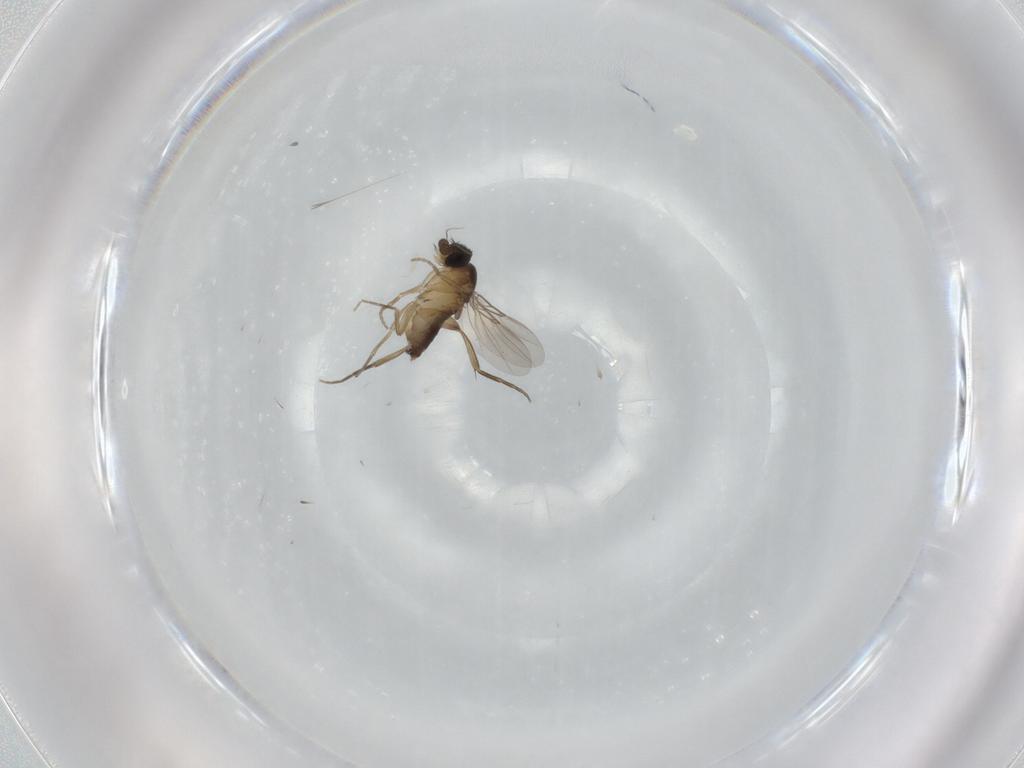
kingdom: Animalia
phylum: Arthropoda
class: Insecta
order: Diptera
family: Phoridae
